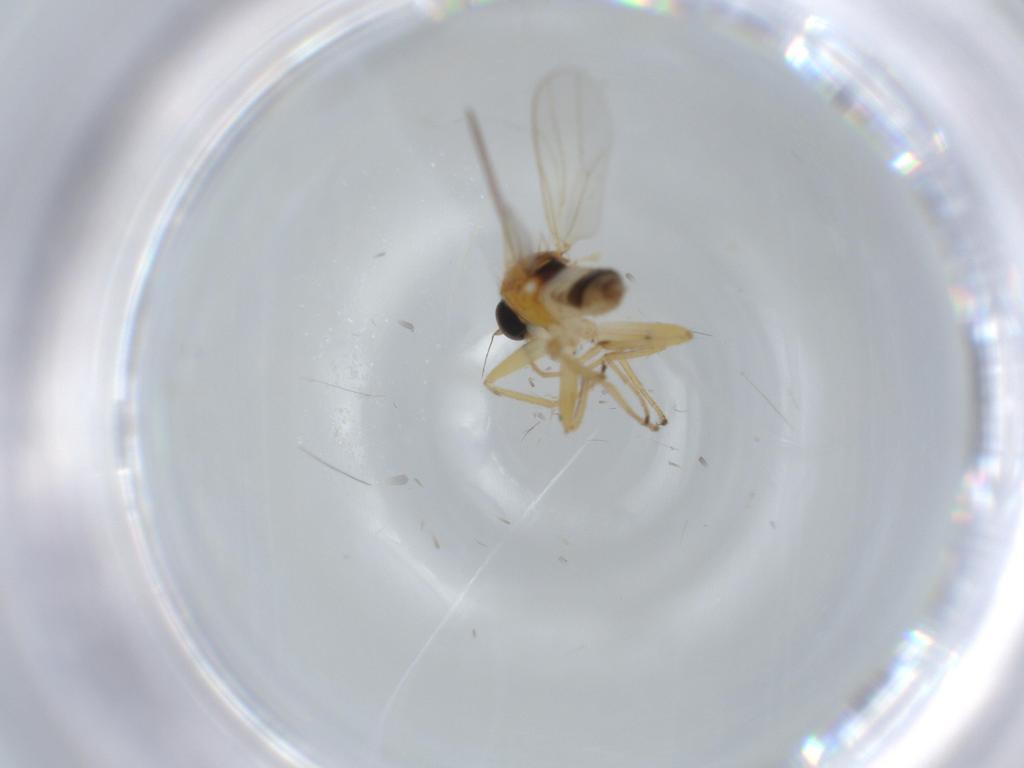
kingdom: Animalia
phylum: Arthropoda
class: Insecta
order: Diptera
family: Hybotidae
